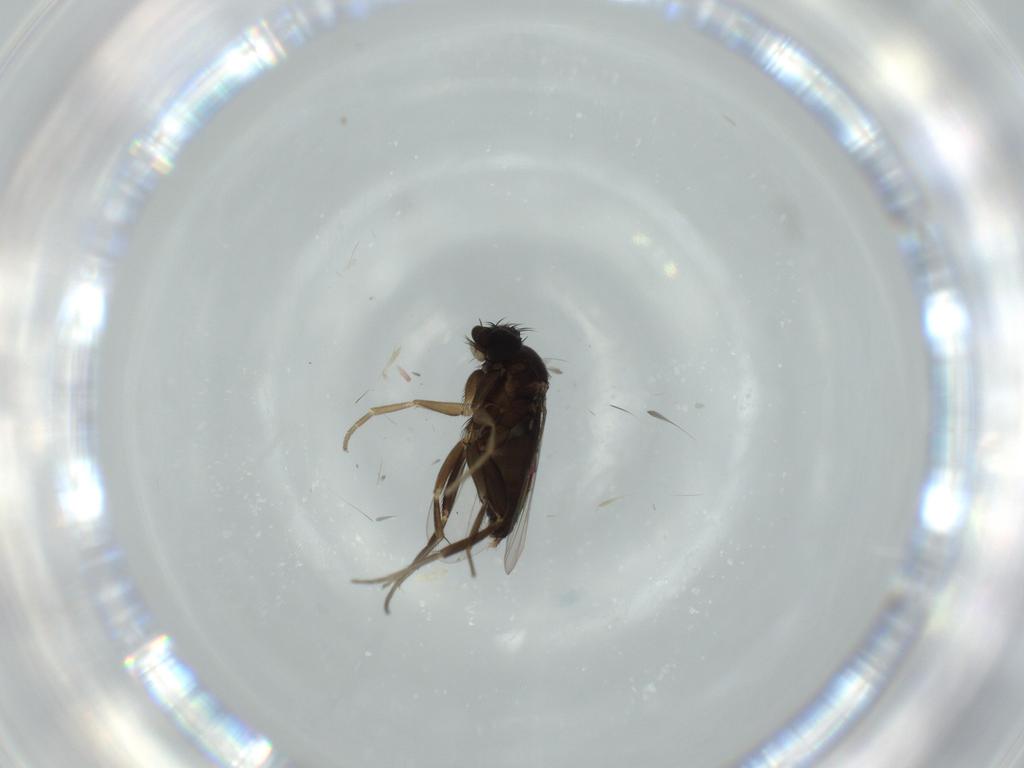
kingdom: Animalia
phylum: Arthropoda
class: Insecta
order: Diptera
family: Phoridae
